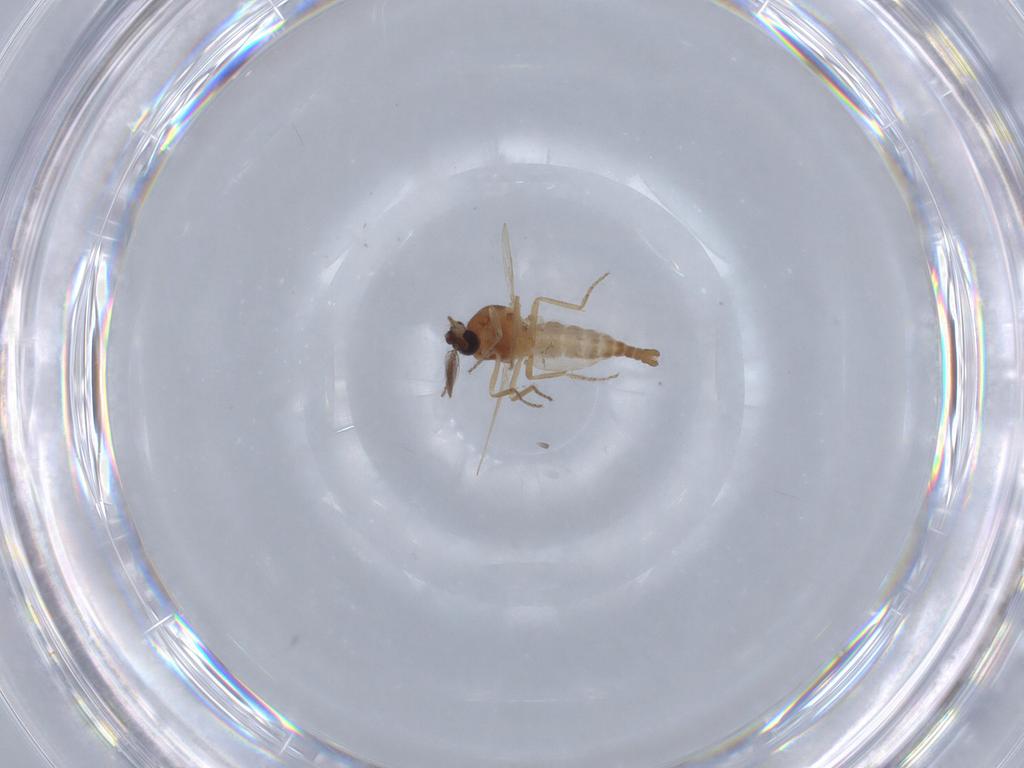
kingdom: Animalia
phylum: Arthropoda
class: Insecta
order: Diptera
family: Ceratopogonidae
